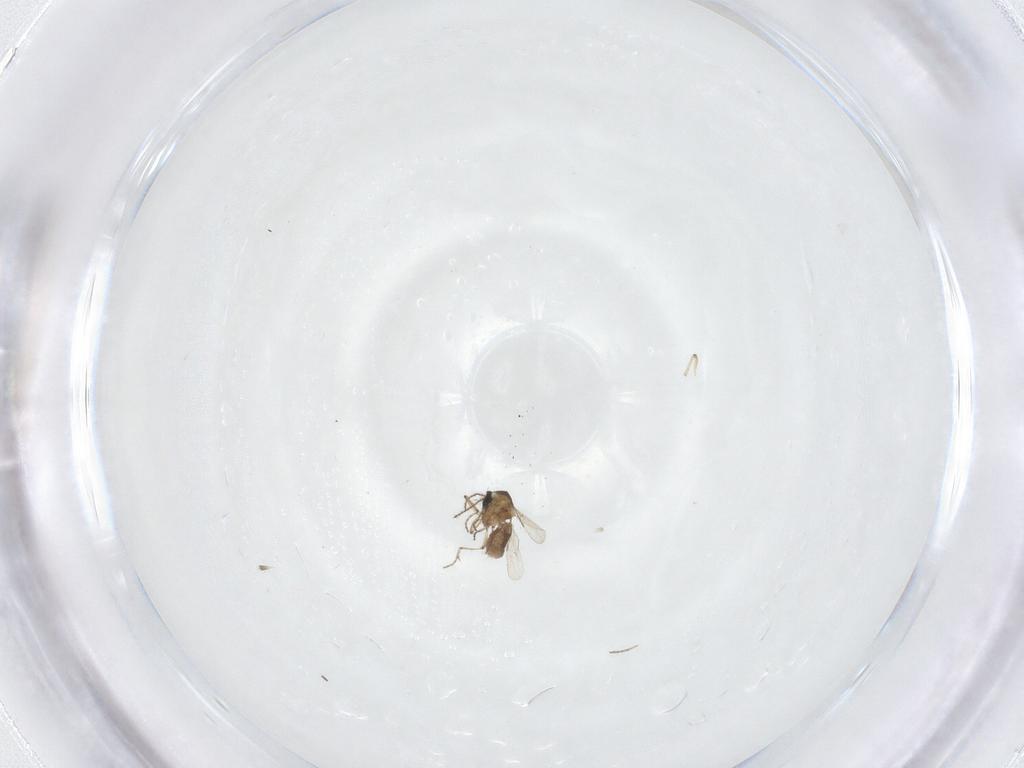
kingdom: Animalia
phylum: Arthropoda
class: Insecta
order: Diptera
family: Ceratopogonidae
